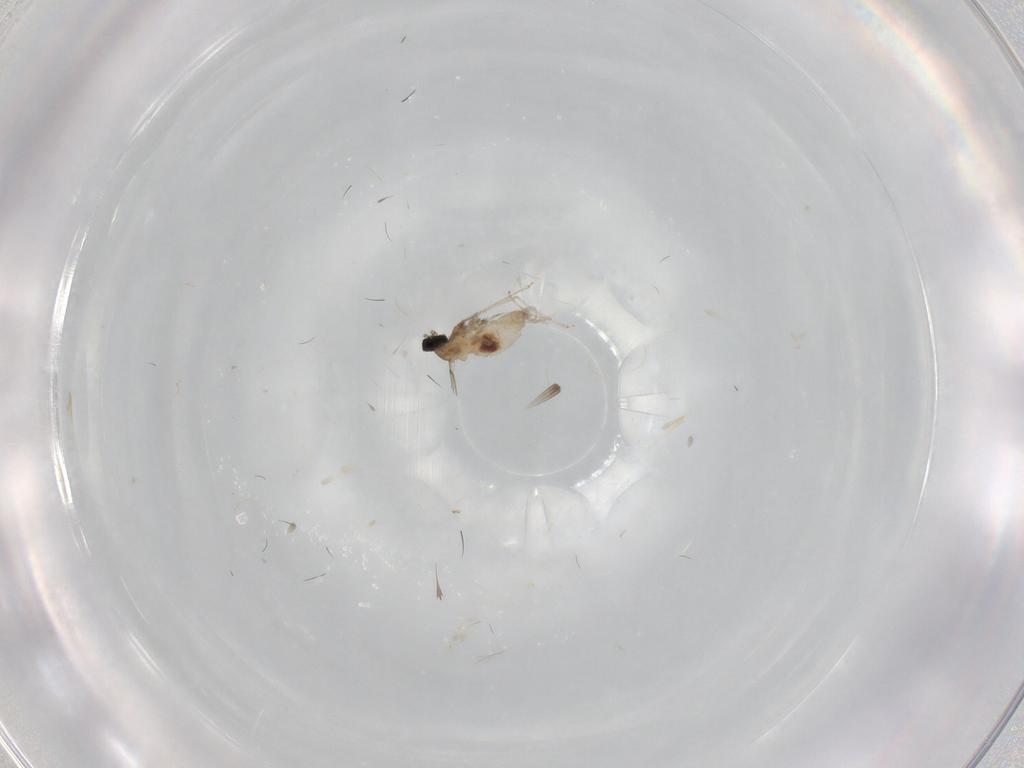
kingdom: Animalia
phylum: Arthropoda
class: Insecta
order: Diptera
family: Cecidomyiidae
